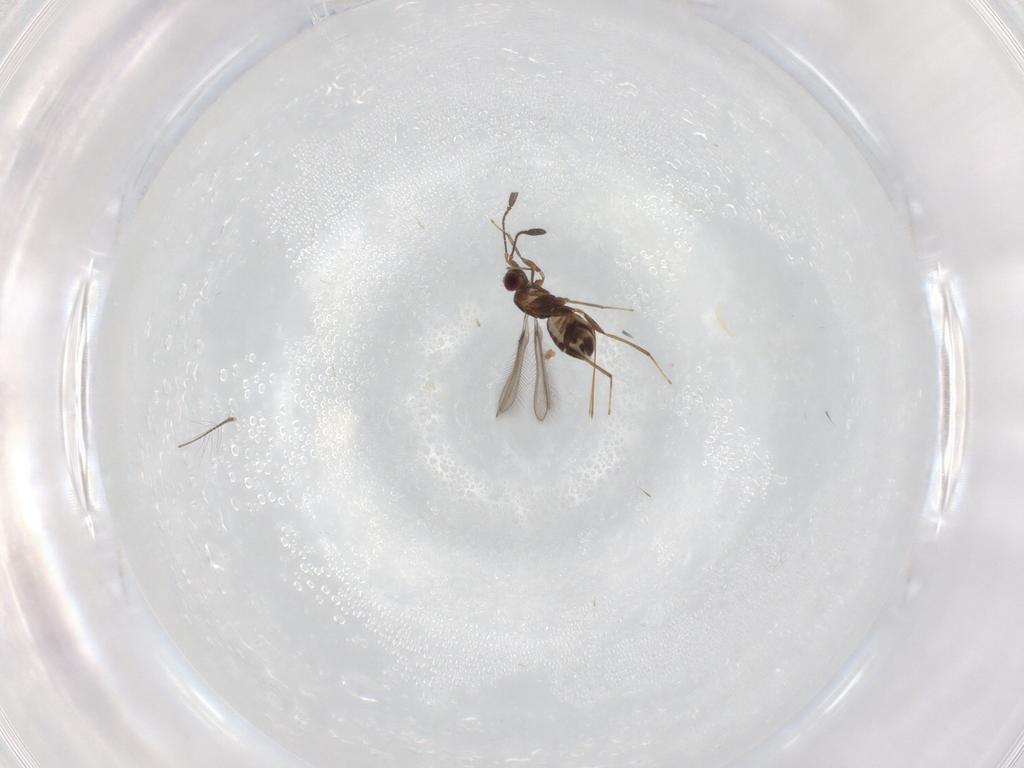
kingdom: Animalia
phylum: Arthropoda
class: Insecta
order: Hymenoptera
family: Mymaridae
